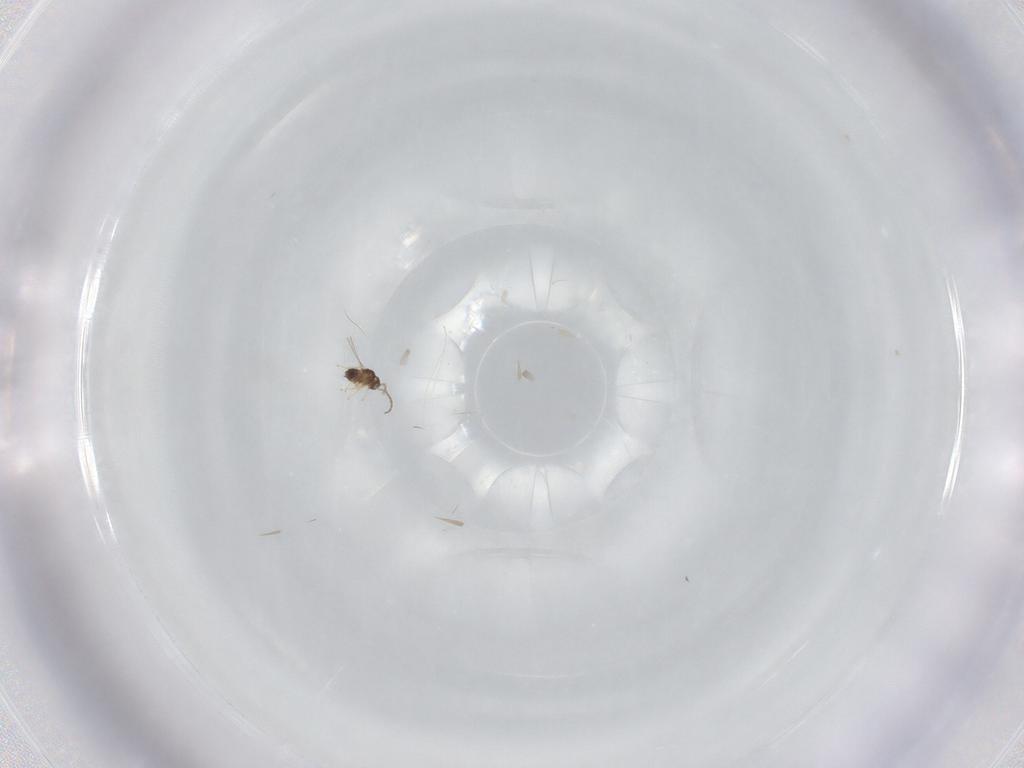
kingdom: Animalia
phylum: Arthropoda
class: Insecta
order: Hymenoptera
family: Ichneumonidae
